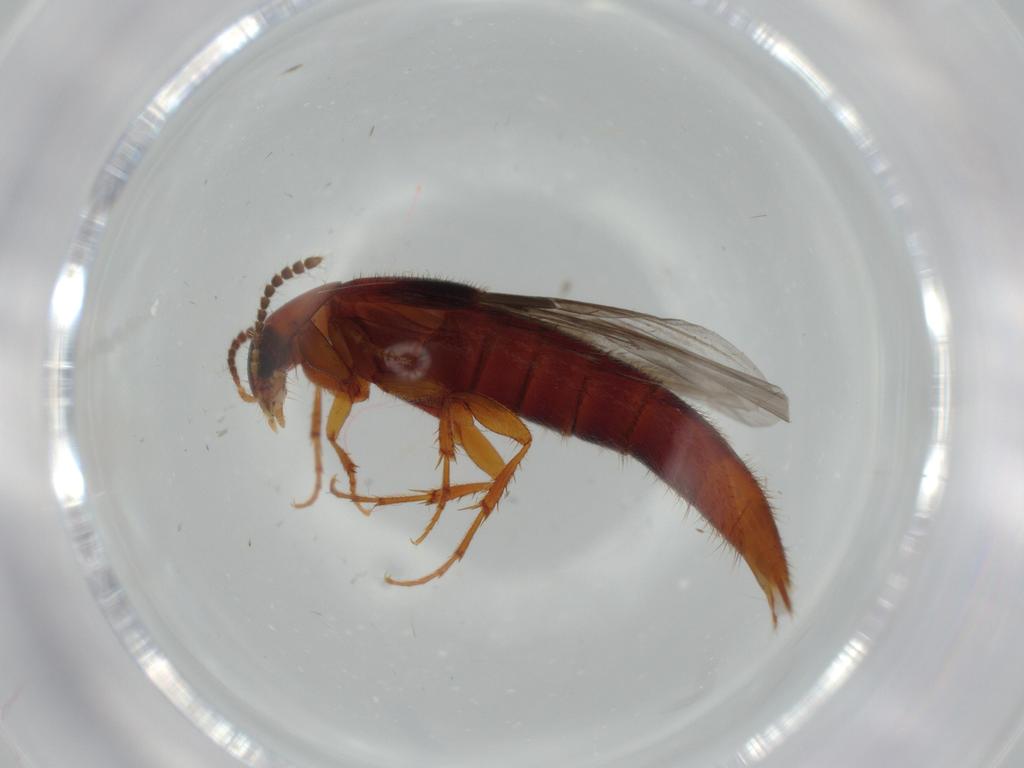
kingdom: Animalia
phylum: Arthropoda
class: Insecta
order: Coleoptera
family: Staphylinidae
